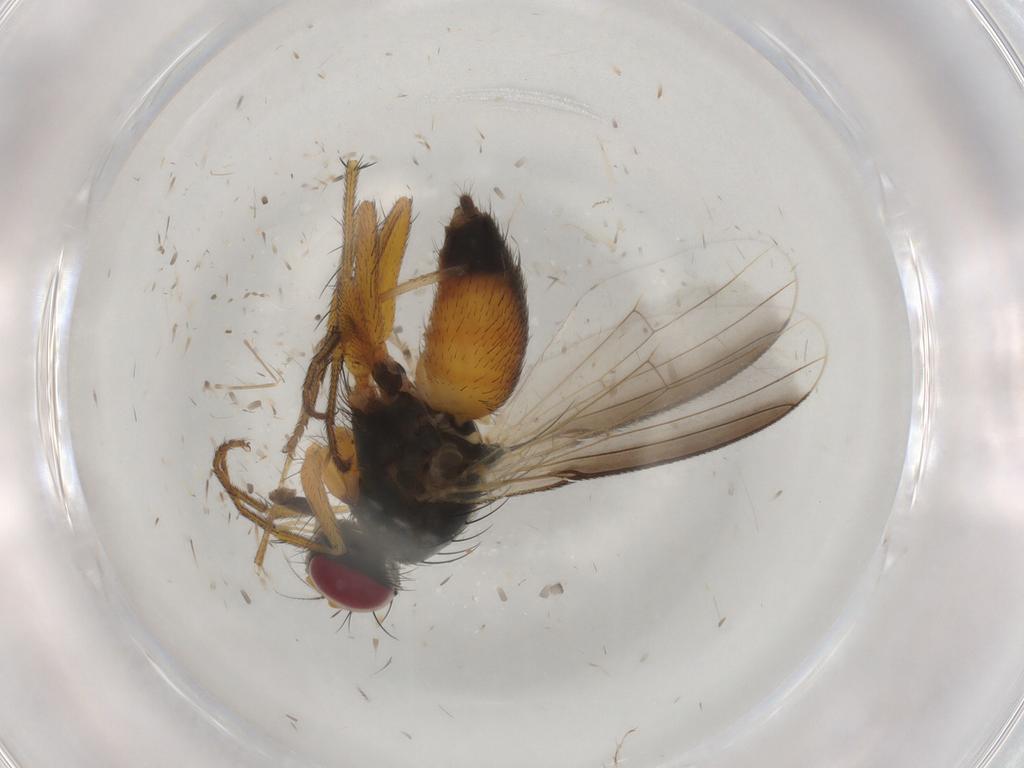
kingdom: Animalia
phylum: Arthropoda
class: Insecta
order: Diptera
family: Muscidae
